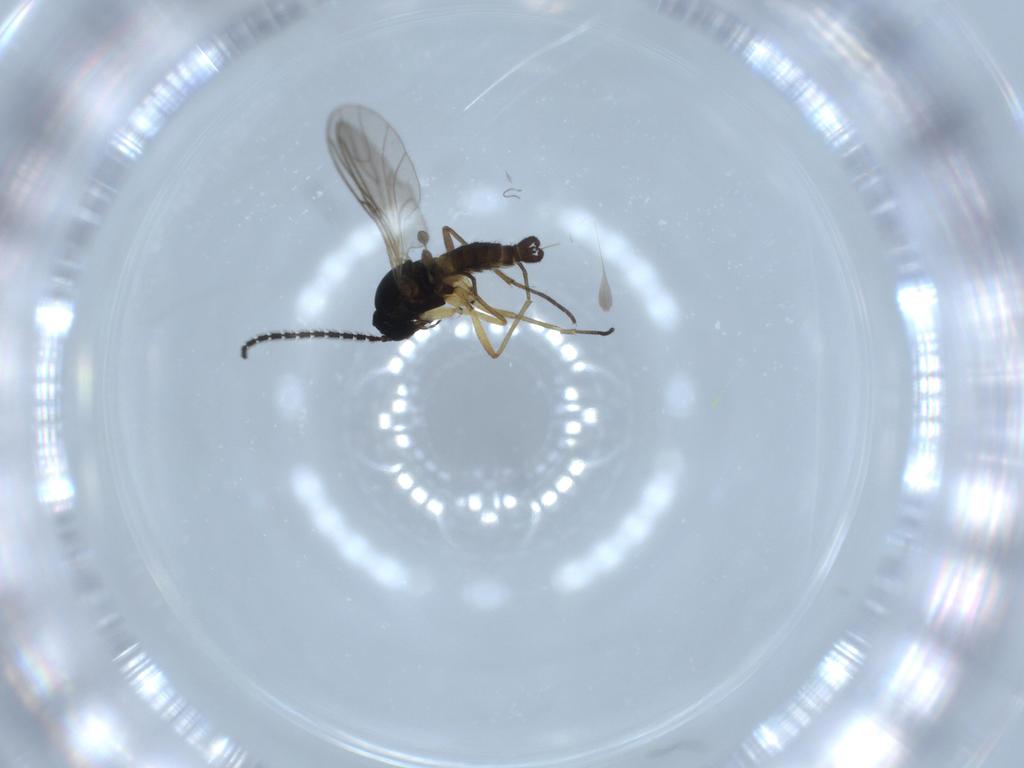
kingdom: Animalia
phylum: Arthropoda
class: Insecta
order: Diptera
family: Sciaridae
